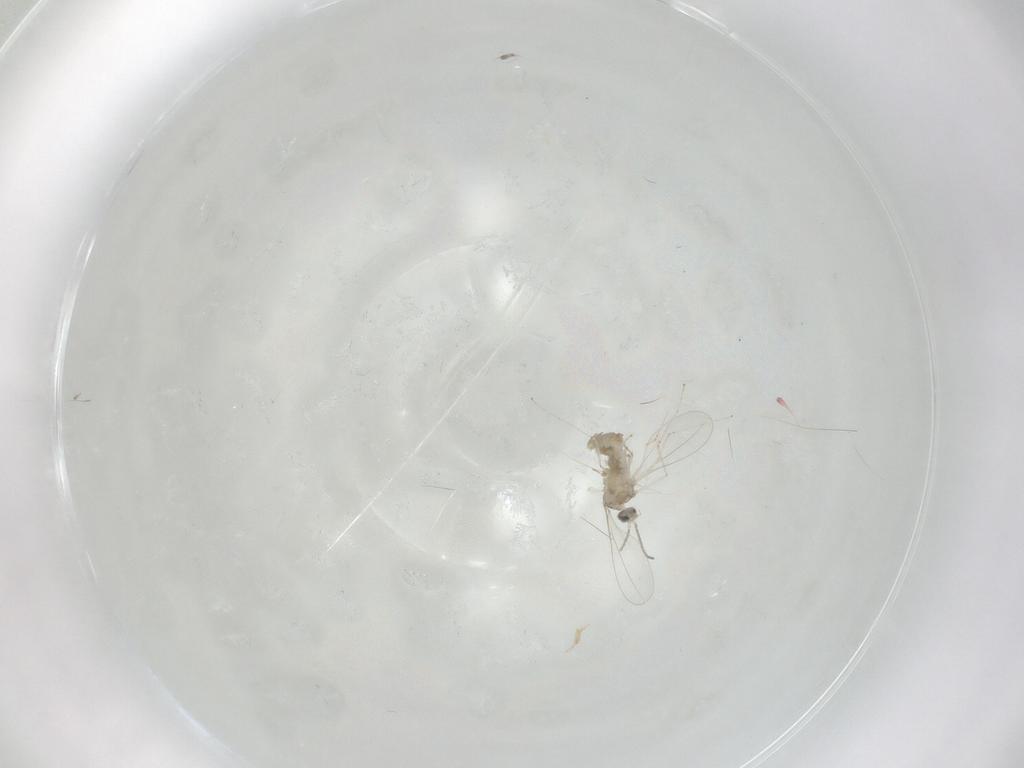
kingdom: Animalia
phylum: Arthropoda
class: Insecta
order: Diptera
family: Cecidomyiidae
